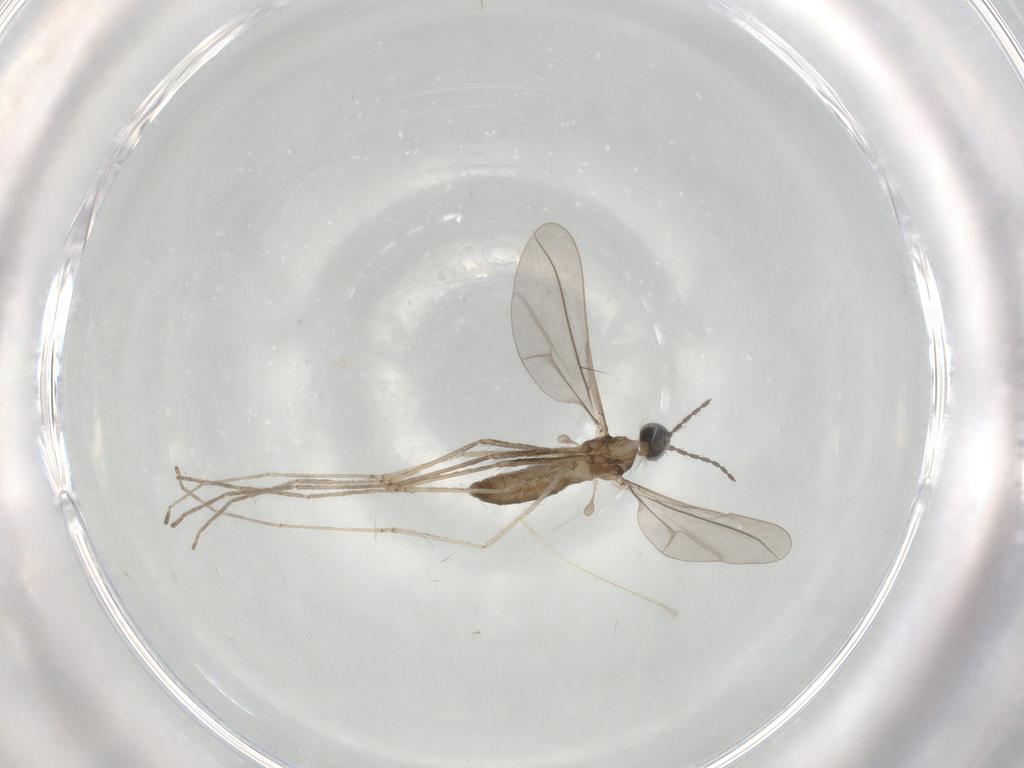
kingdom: Animalia
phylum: Arthropoda
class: Insecta
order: Diptera
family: Cecidomyiidae
